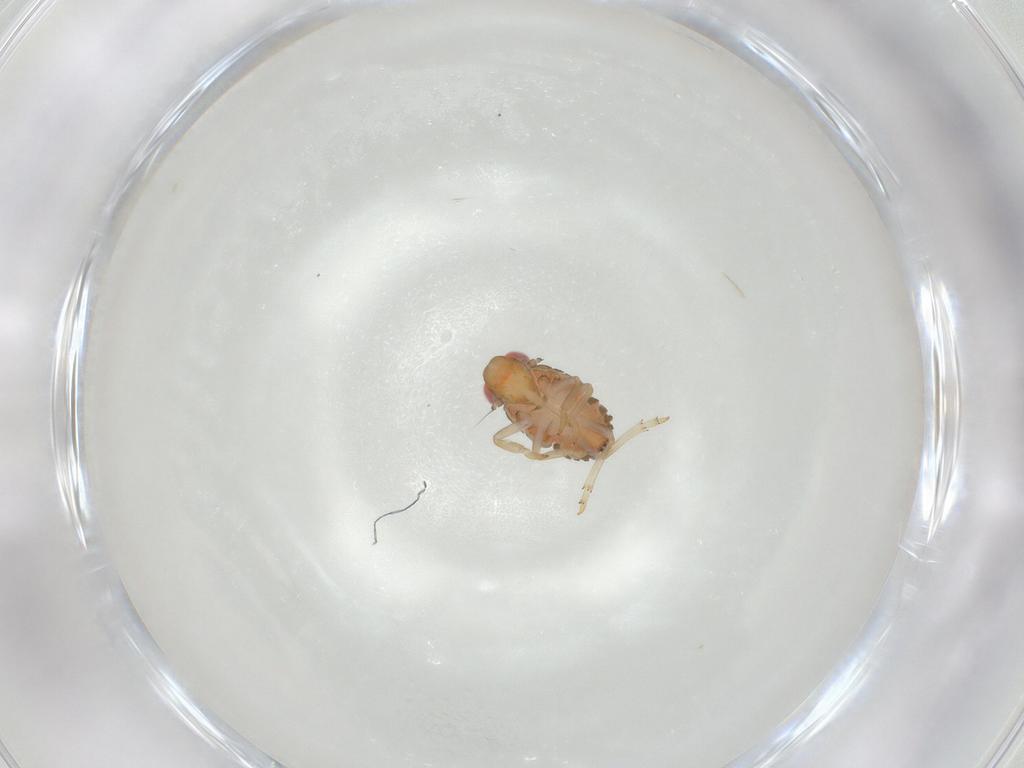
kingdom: Animalia
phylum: Arthropoda
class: Insecta
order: Hemiptera
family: Issidae
